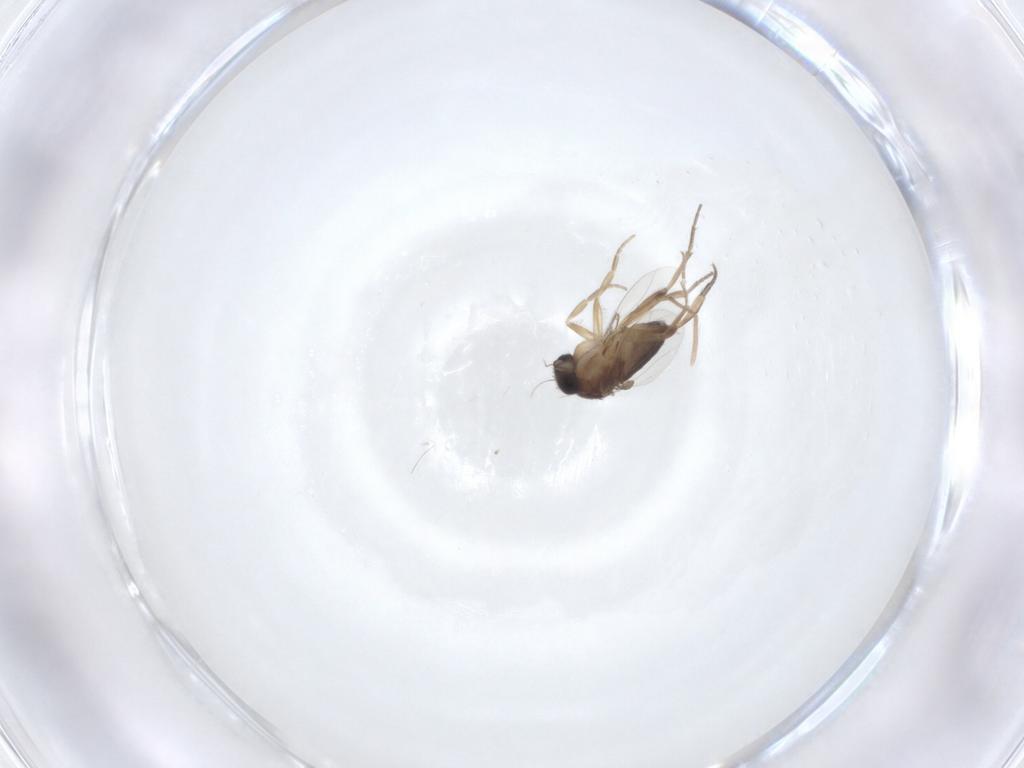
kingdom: Animalia
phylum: Arthropoda
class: Insecta
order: Diptera
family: Phoridae
